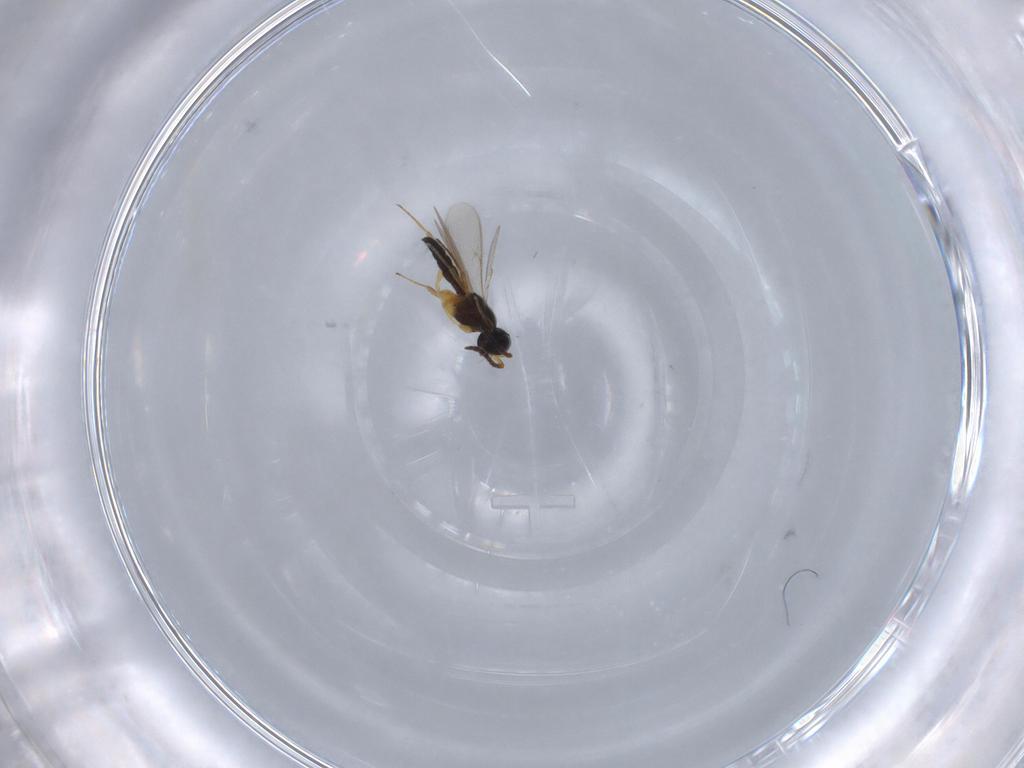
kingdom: Animalia
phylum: Arthropoda
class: Insecta
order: Hymenoptera
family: Scelionidae
